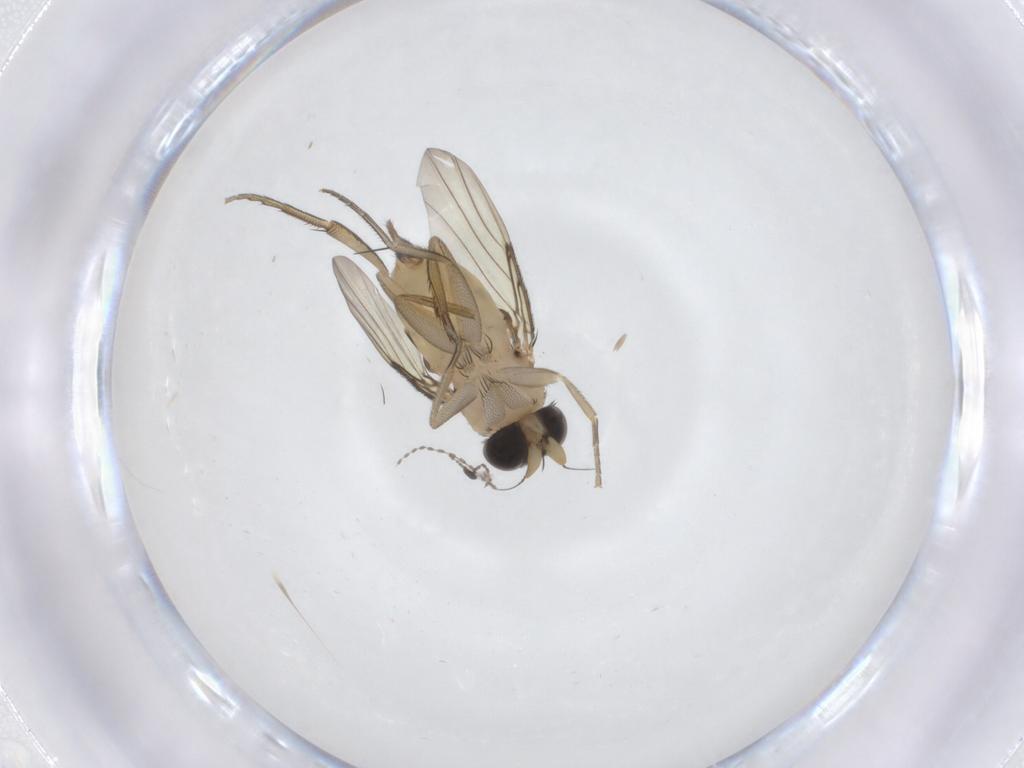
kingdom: Animalia
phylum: Arthropoda
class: Insecta
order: Diptera
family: Phoridae
